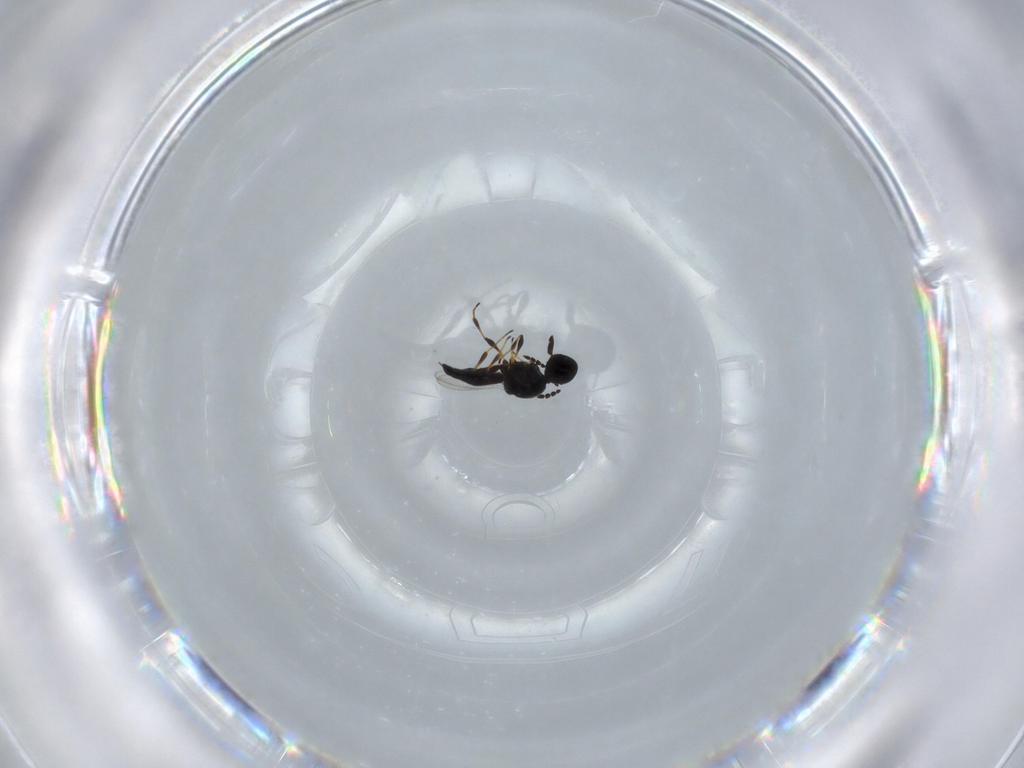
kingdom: Animalia
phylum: Arthropoda
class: Insecta
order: Hymenoptera
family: Platygastridae
